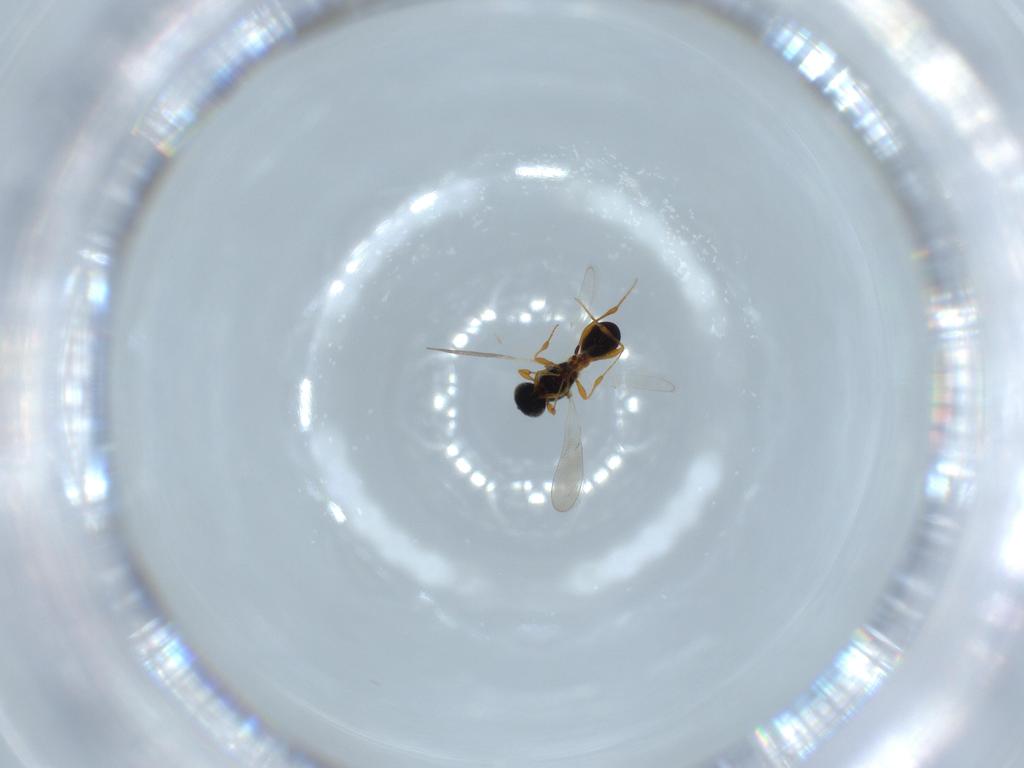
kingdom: Animalia
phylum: Arthropoda
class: Insecta
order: Hymenoptera
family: Platygastridae
